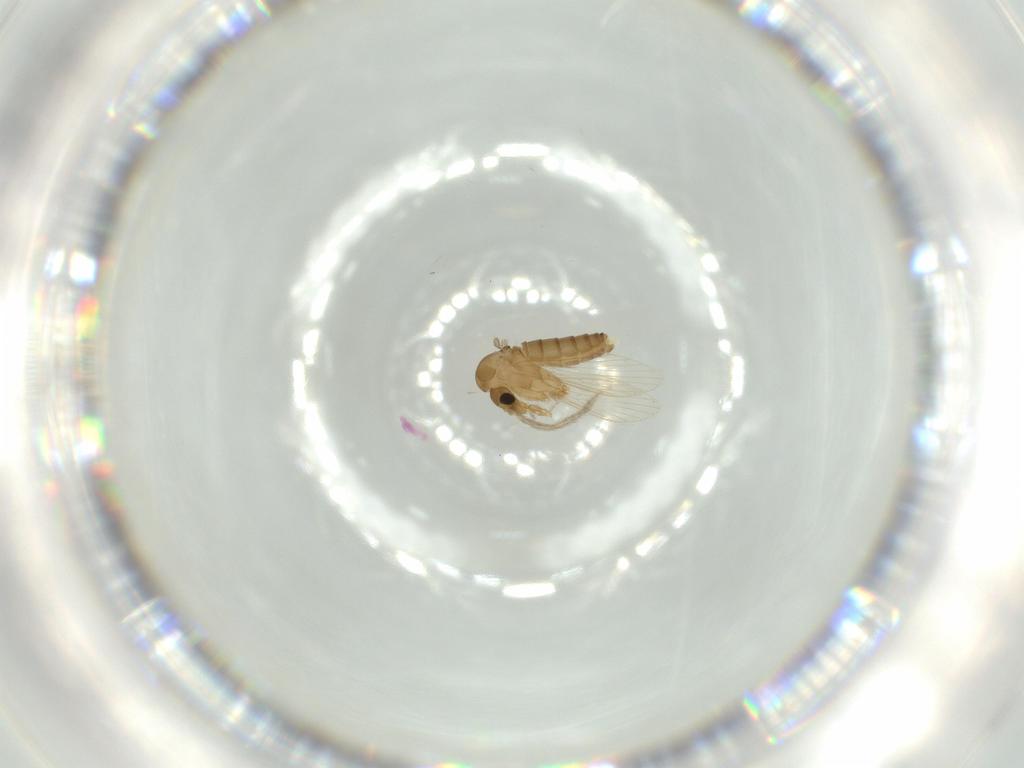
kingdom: Animalia
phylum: Arthropoda
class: Insecta
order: Diptera
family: Psychodidae
